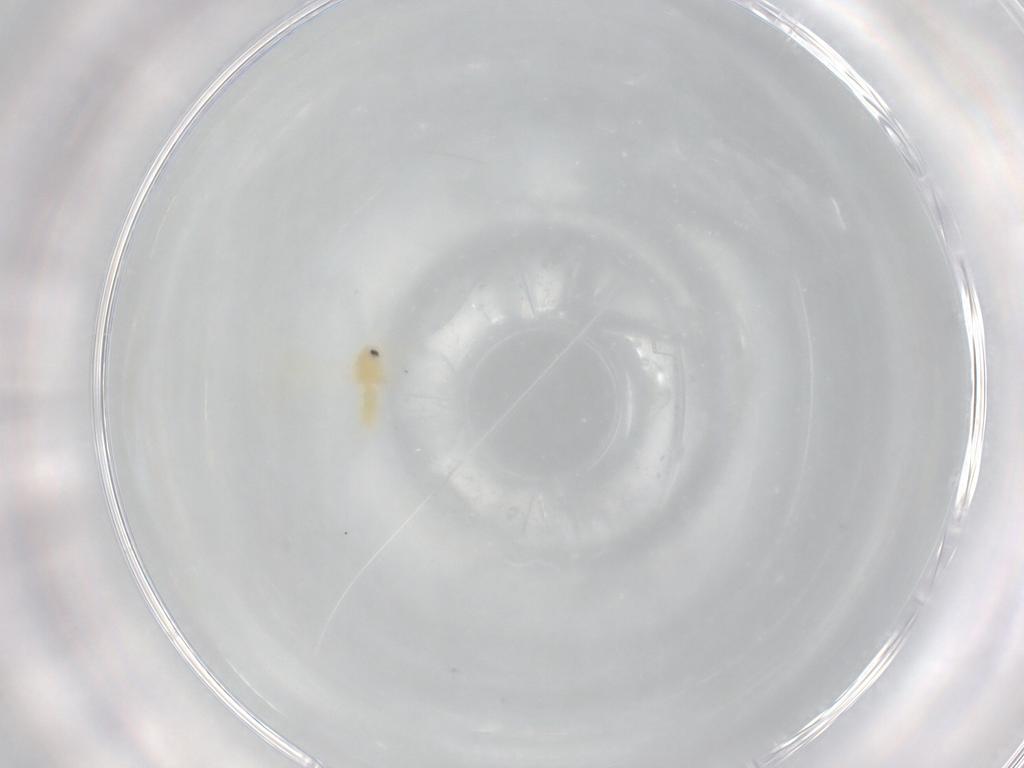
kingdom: Animalia
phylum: Arthropoda
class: Insecta
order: Hemiptera
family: Aleyrodidae
